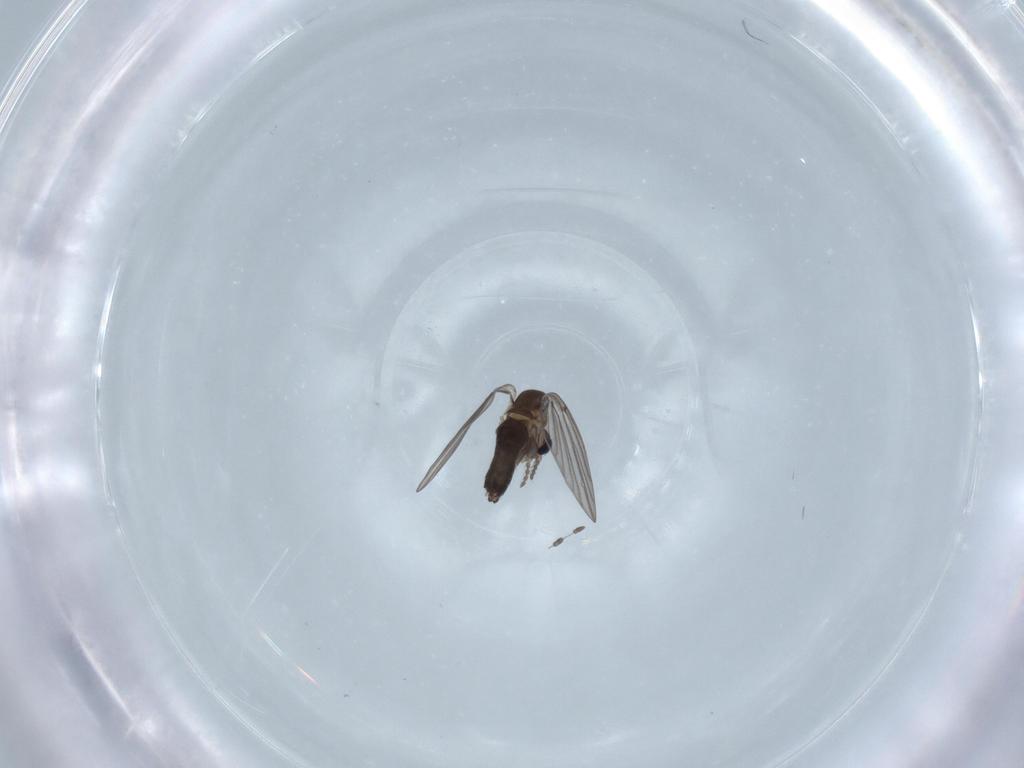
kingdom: Animalia
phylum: Arthropoda
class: Insecta
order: Diptera
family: Psychodidae
